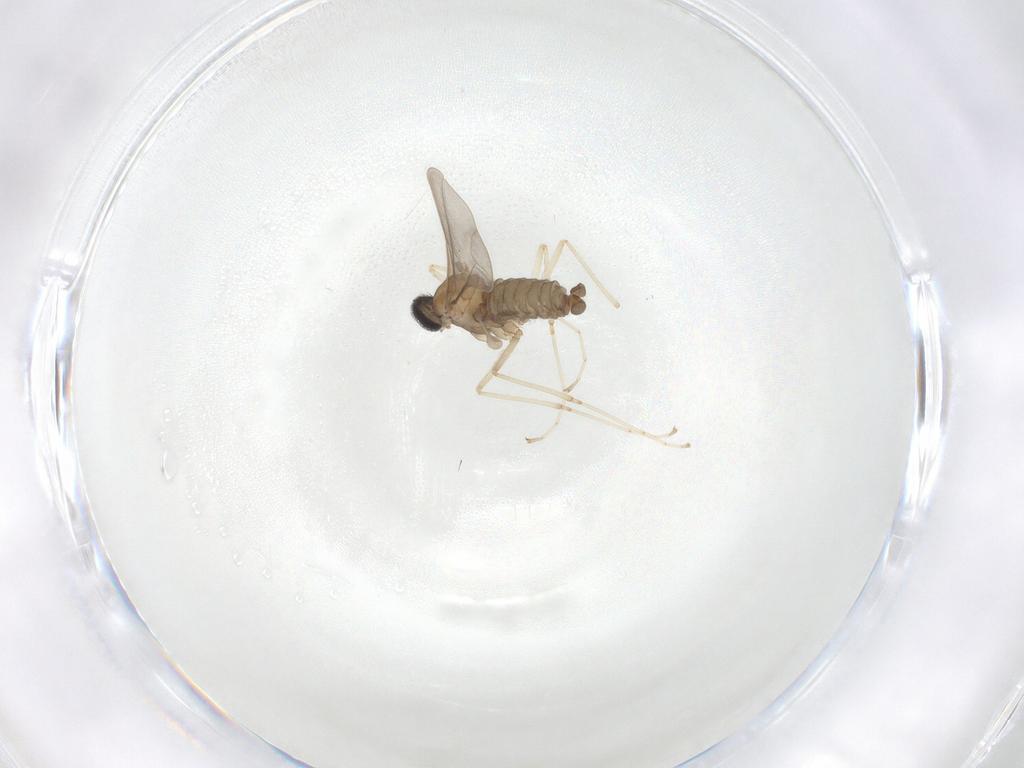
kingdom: Animalia
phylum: Arthropoda
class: Insecta
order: Diptera
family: Cecidomyiidae
